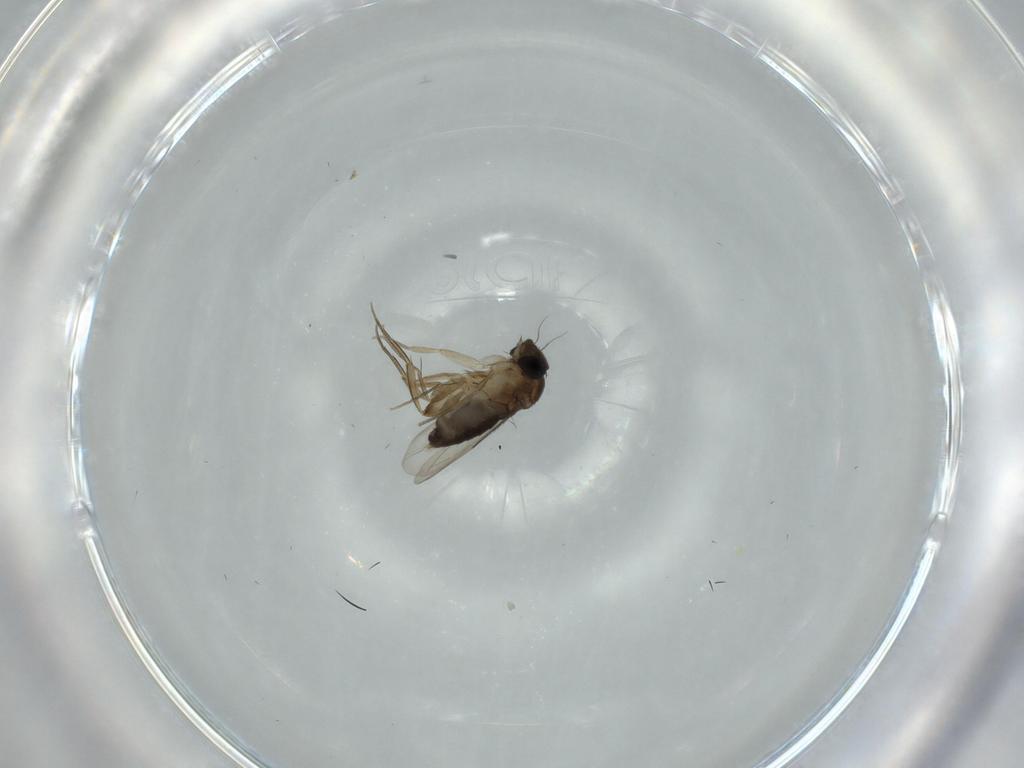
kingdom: Animalia
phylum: Arthropoda
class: Insecta
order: Diptera
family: Phoridae
